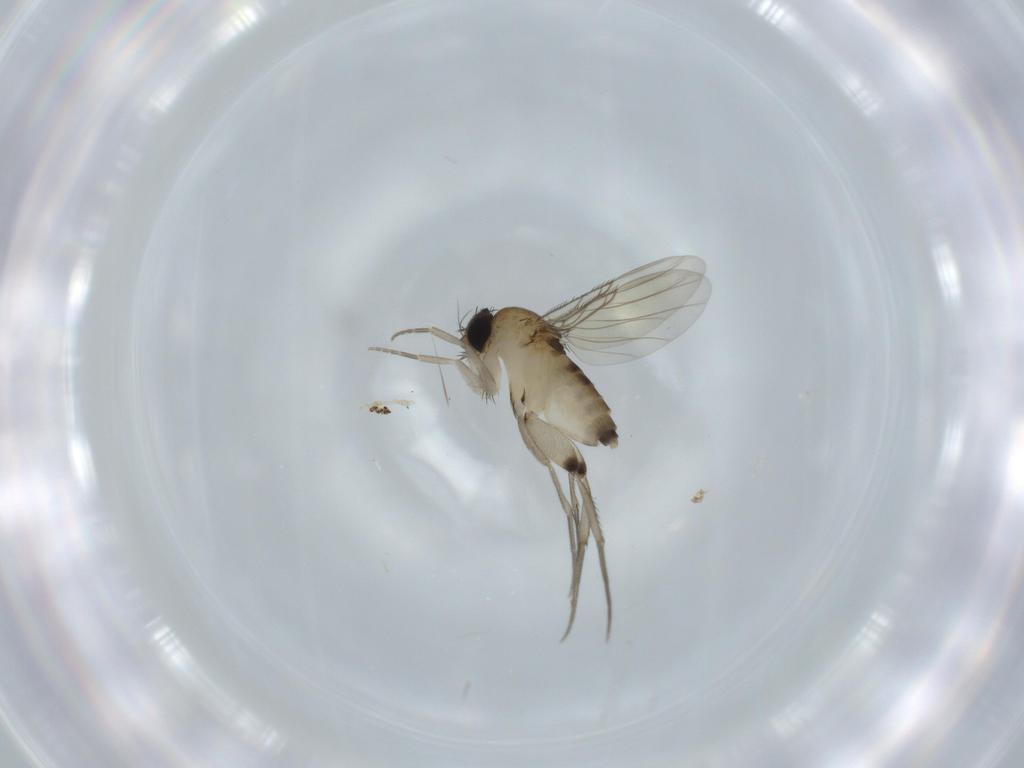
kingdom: Animalia
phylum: Arthropoda
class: Insecta
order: Diptera
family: Phoridae
